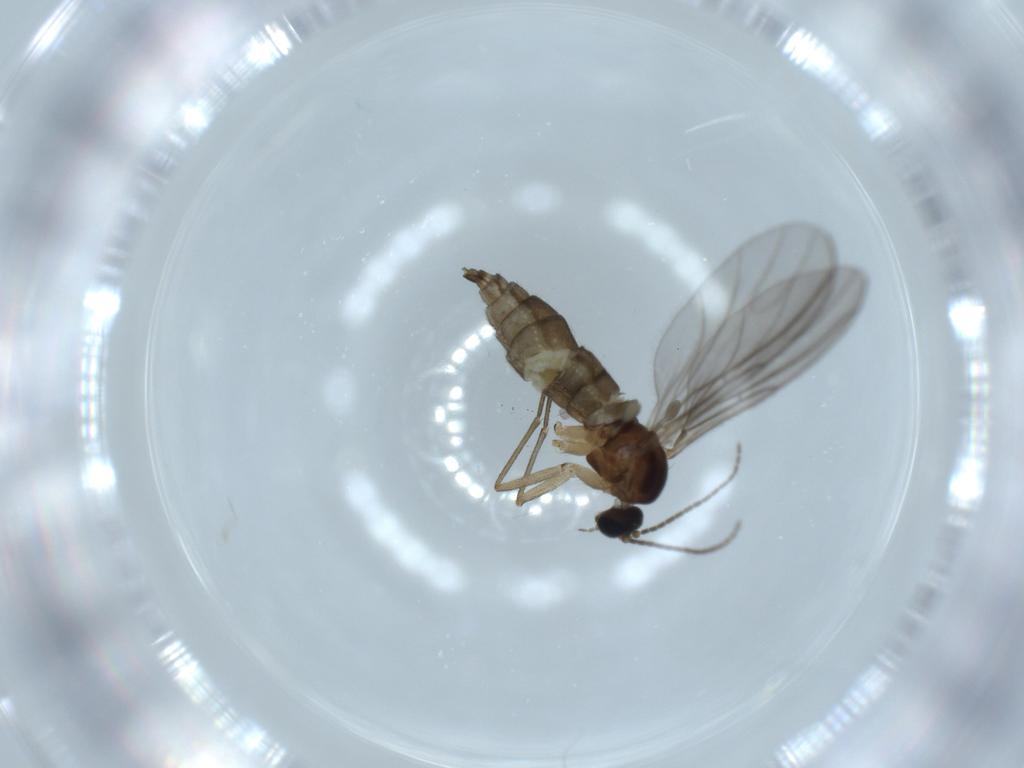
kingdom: Animalia
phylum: Arthropoda
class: Insecta
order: Diptera
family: Sciaridae
